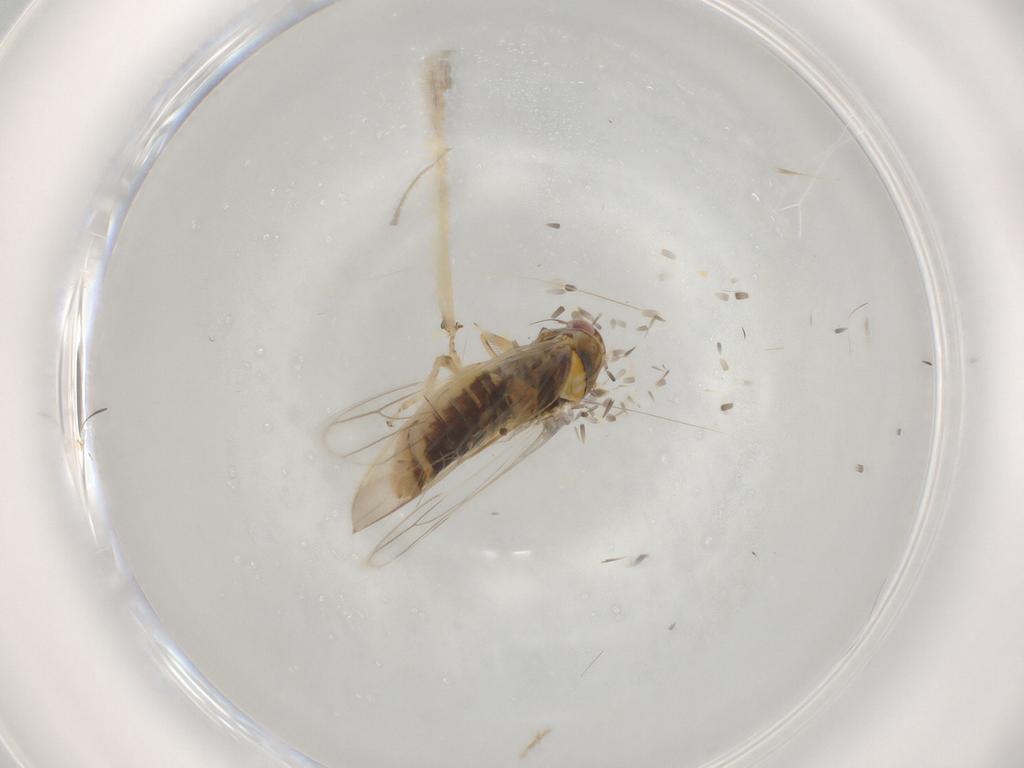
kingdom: Animalia
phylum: Arthropoda
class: Insecta
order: Hemiptera
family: Cicadellidae
